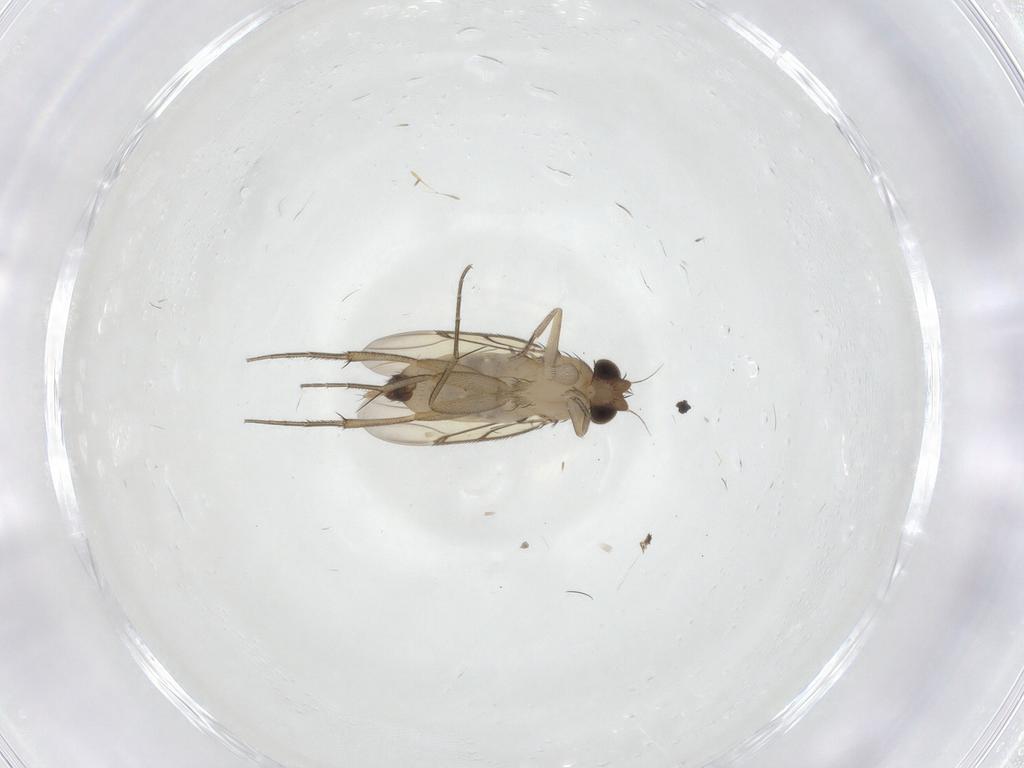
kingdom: Animalia
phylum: Arthropoda
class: Insecta
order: Diptera
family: Phoridae
